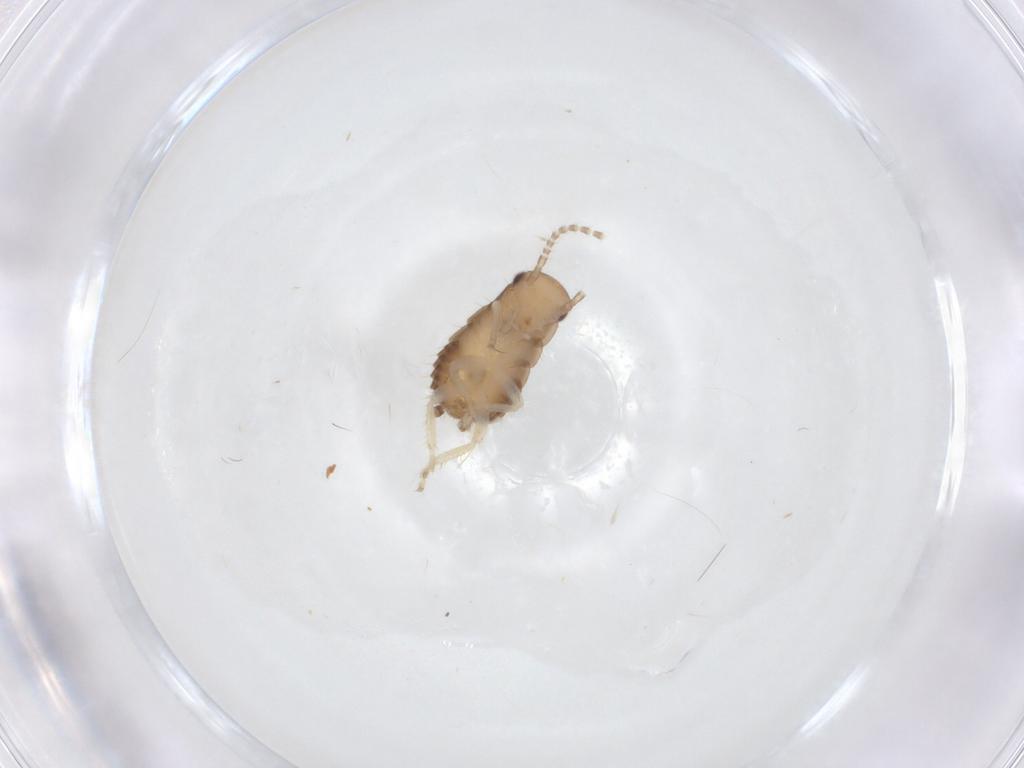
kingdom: Animalia
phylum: Arthropoda
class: Insecta
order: Blattodea
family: Ectobiidae
